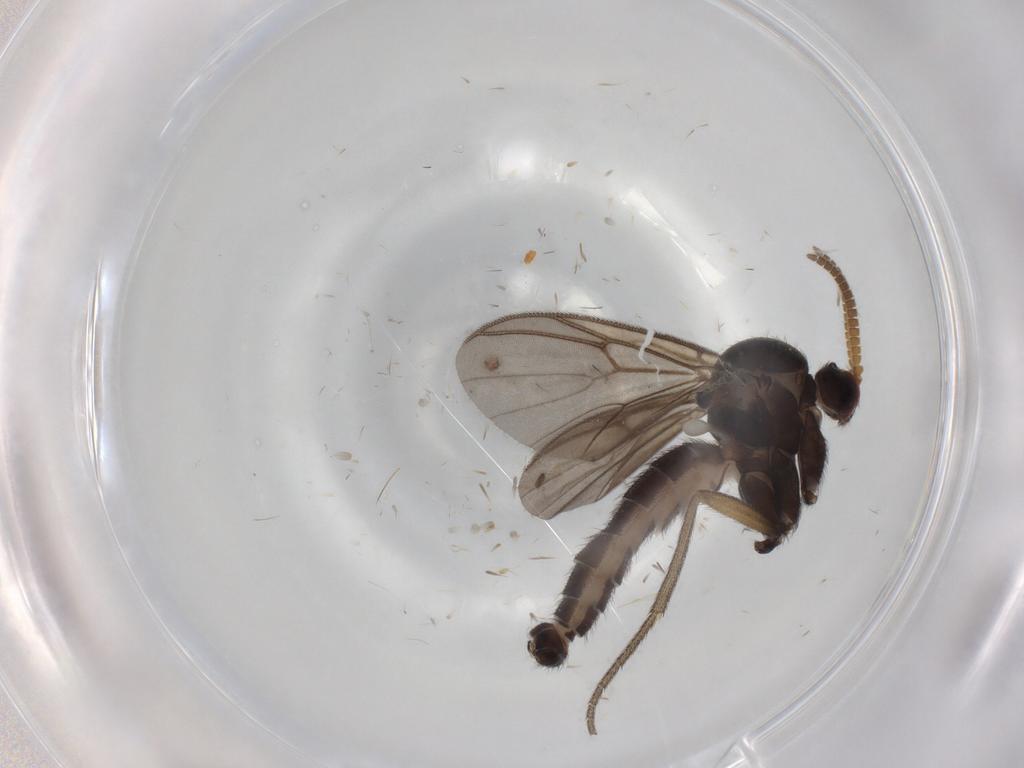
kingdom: Animalia
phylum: Arthropoda
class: Insecta
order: Diptera
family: Mycetophilidae
